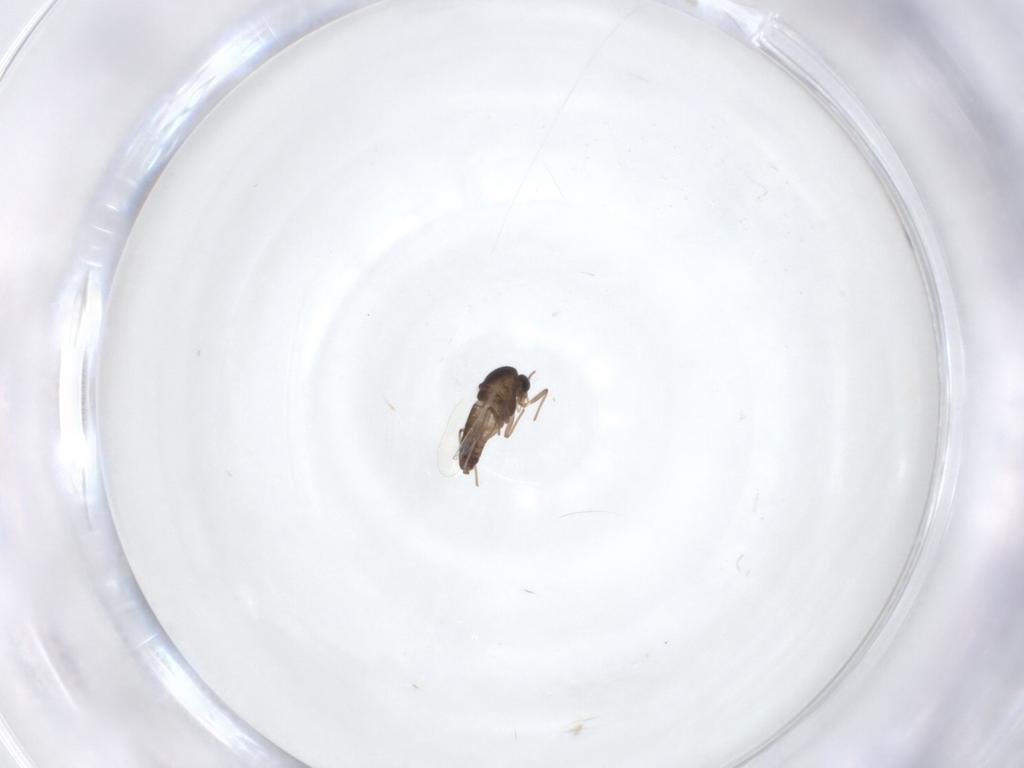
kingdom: Animalia
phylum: Arthropoda
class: Insecta
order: Diptera
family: Chironomidae
